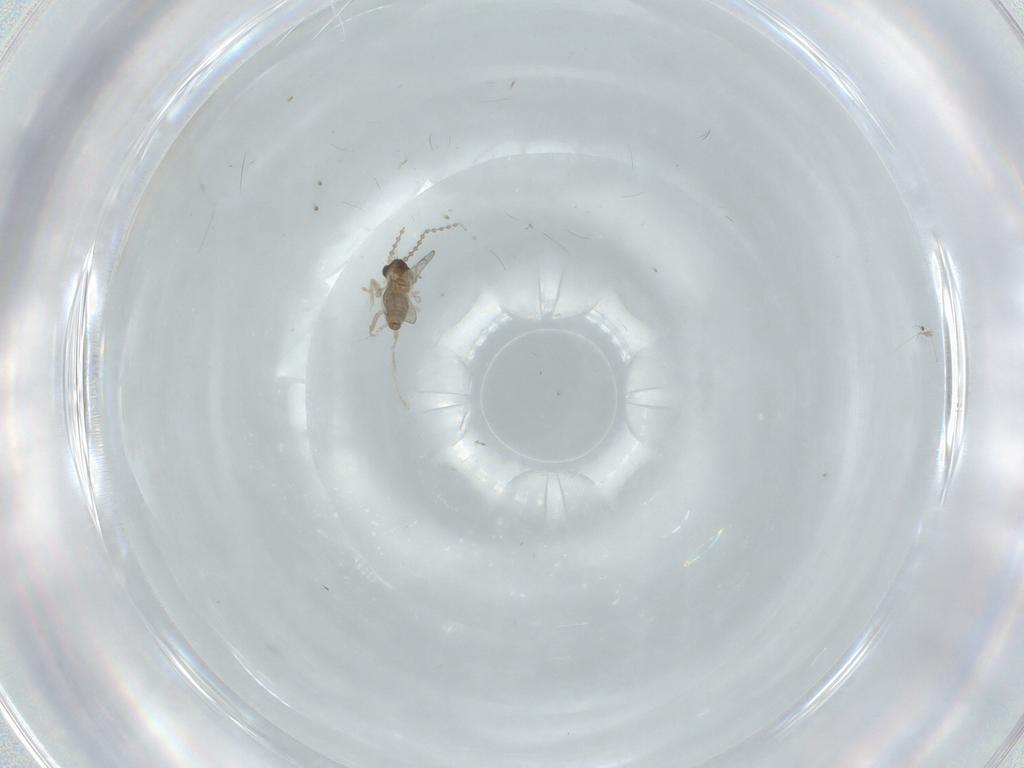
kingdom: Animalia
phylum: Arthropoda
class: Insecta
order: Diptera
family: Cecidomyiidae
